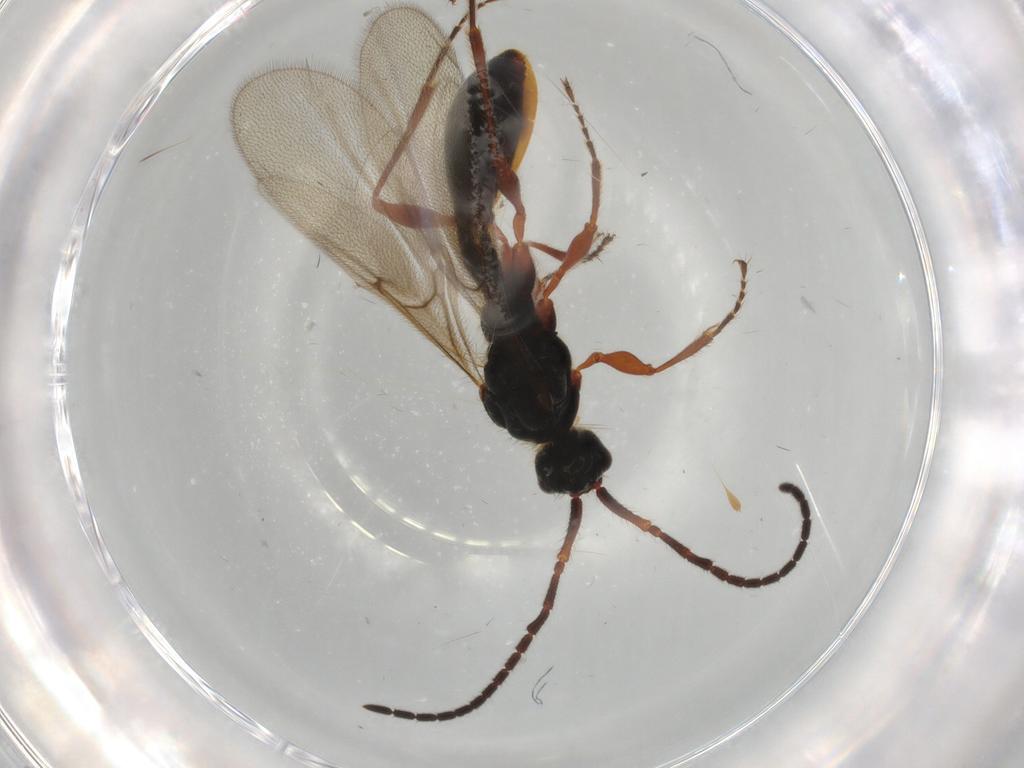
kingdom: Animalia
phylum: Arthropoda
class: Insecta
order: Hymenoptera
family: Diapriidae
